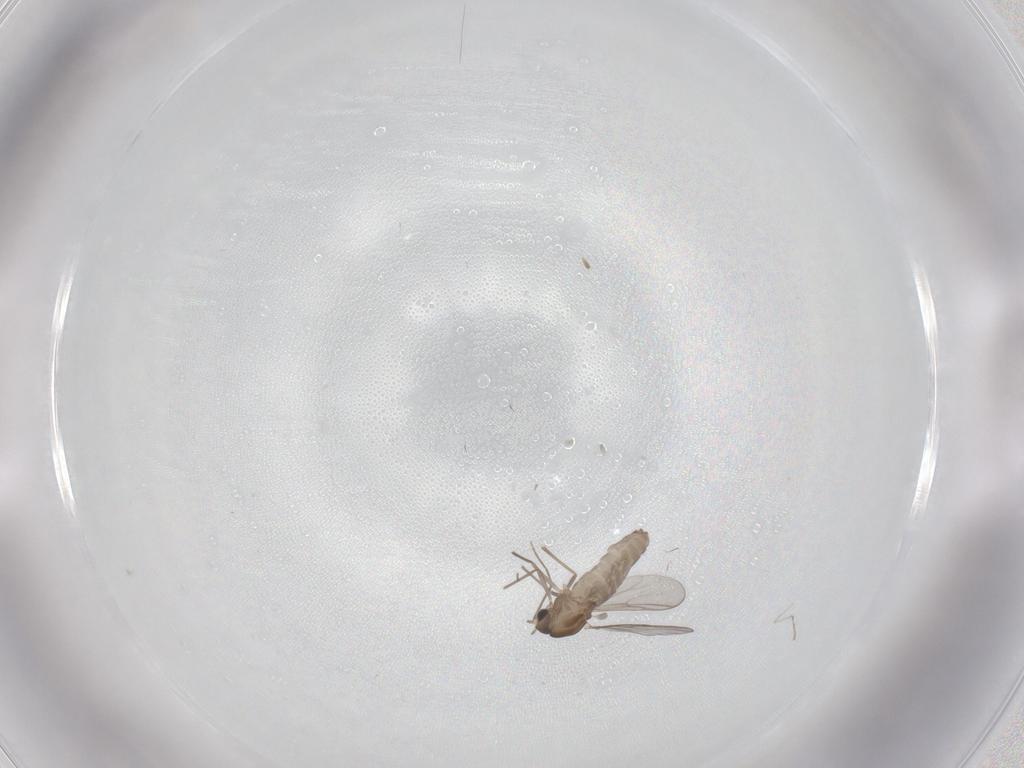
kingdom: Animalia
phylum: Arthropoda
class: Insecta
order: Diptera
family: Chironomidae
